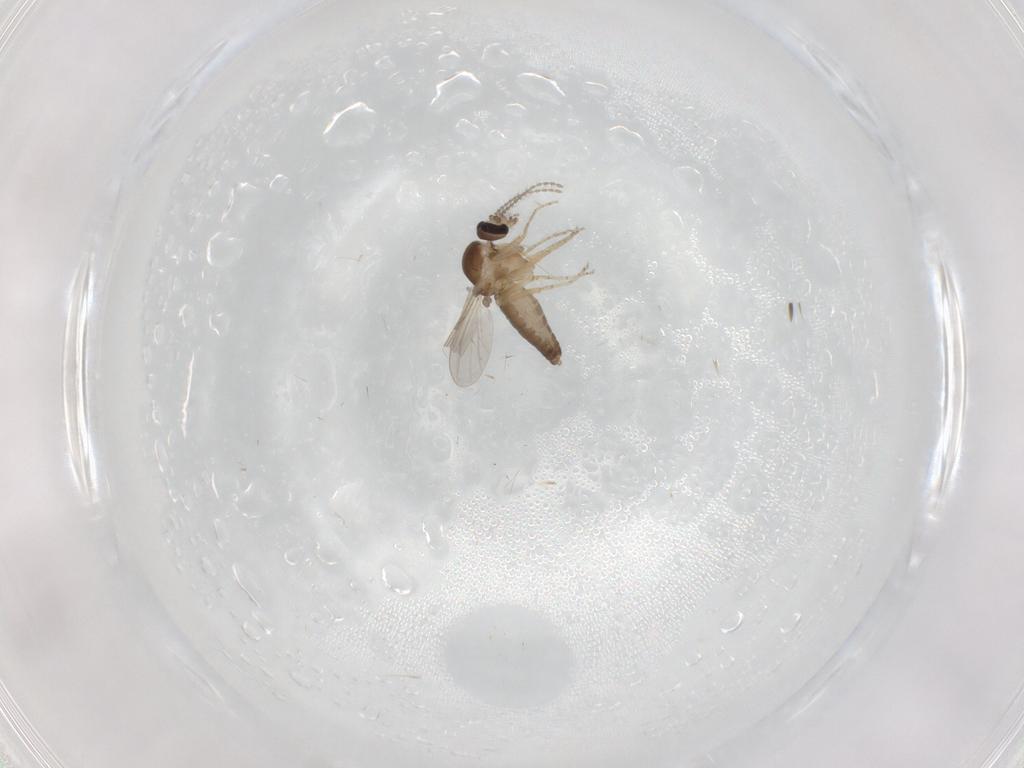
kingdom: Animalia
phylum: Arthropoda
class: Insecta
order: Diptera
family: Ceratopogonidae
